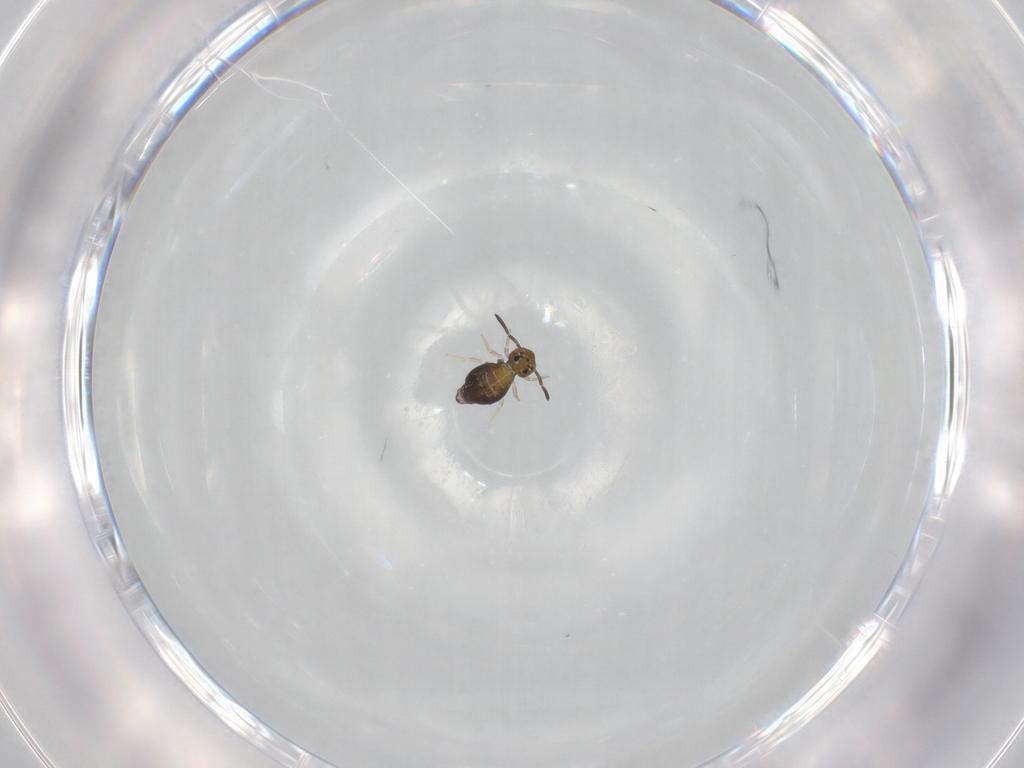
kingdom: Animalia
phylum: Arthropoda
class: Collembola
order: Symphypleona
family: Katiannidae
